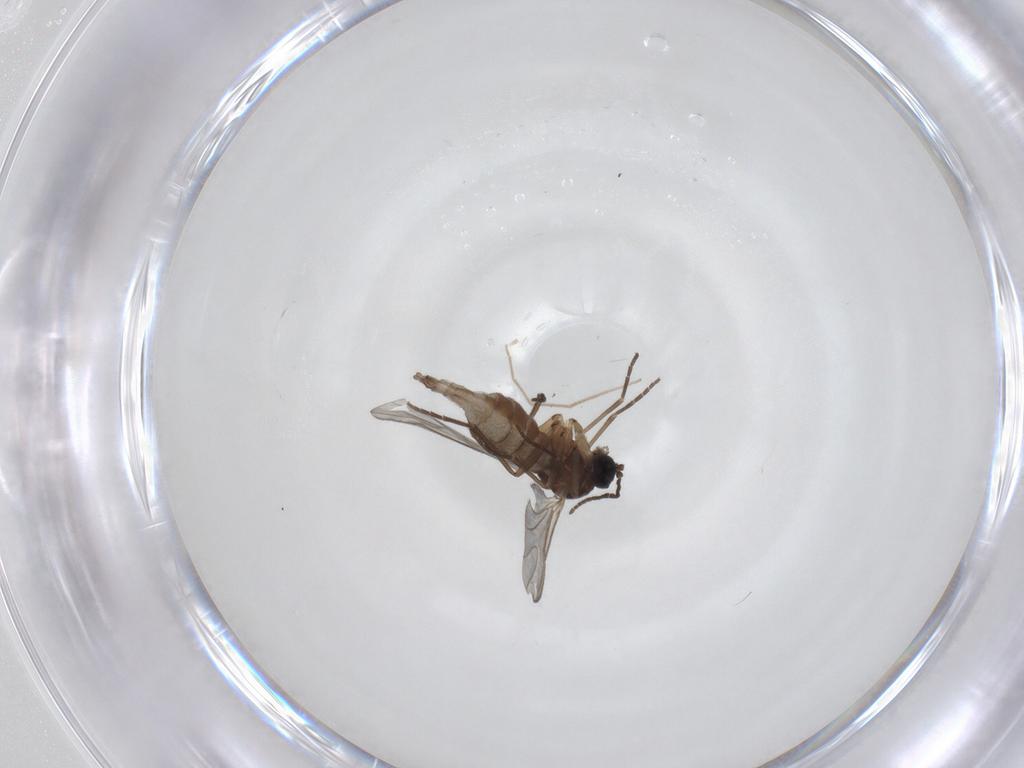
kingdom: Animalia
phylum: Arthropoda
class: Insecta
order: Diptera
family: Sciaridae
